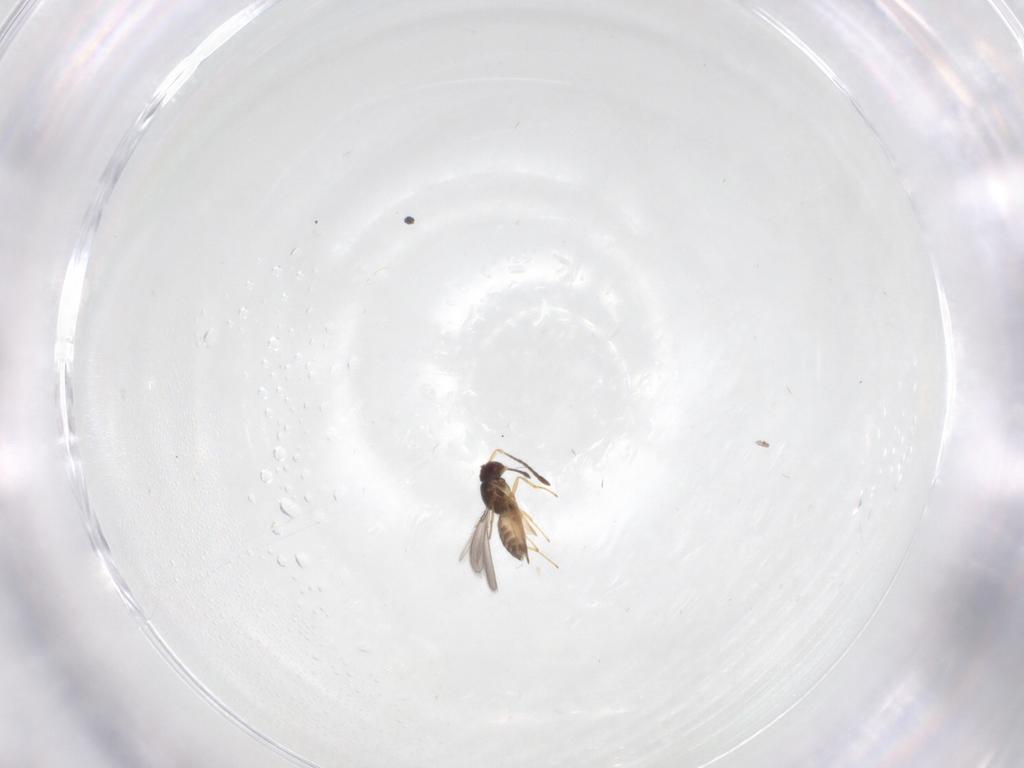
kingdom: Animalia
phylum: Arthropoda
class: Insecta
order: Hymenoptera
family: Mymaridae
